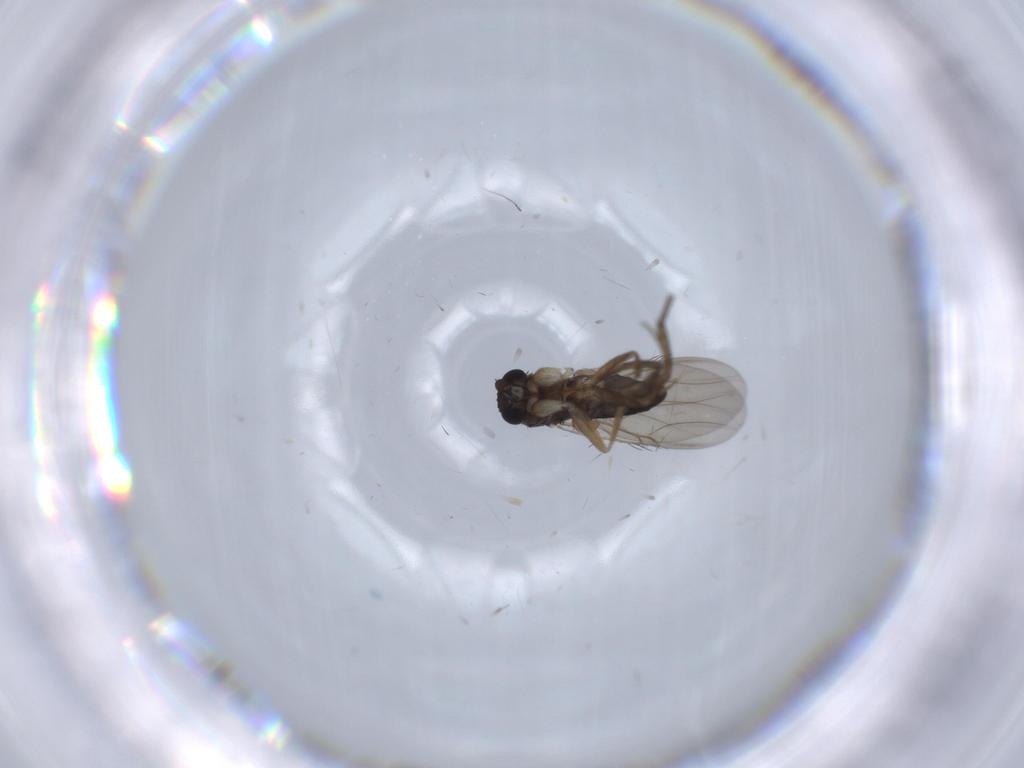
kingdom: Animalia
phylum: Arthropoda
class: Insecta
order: Diptera
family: Phoridae
